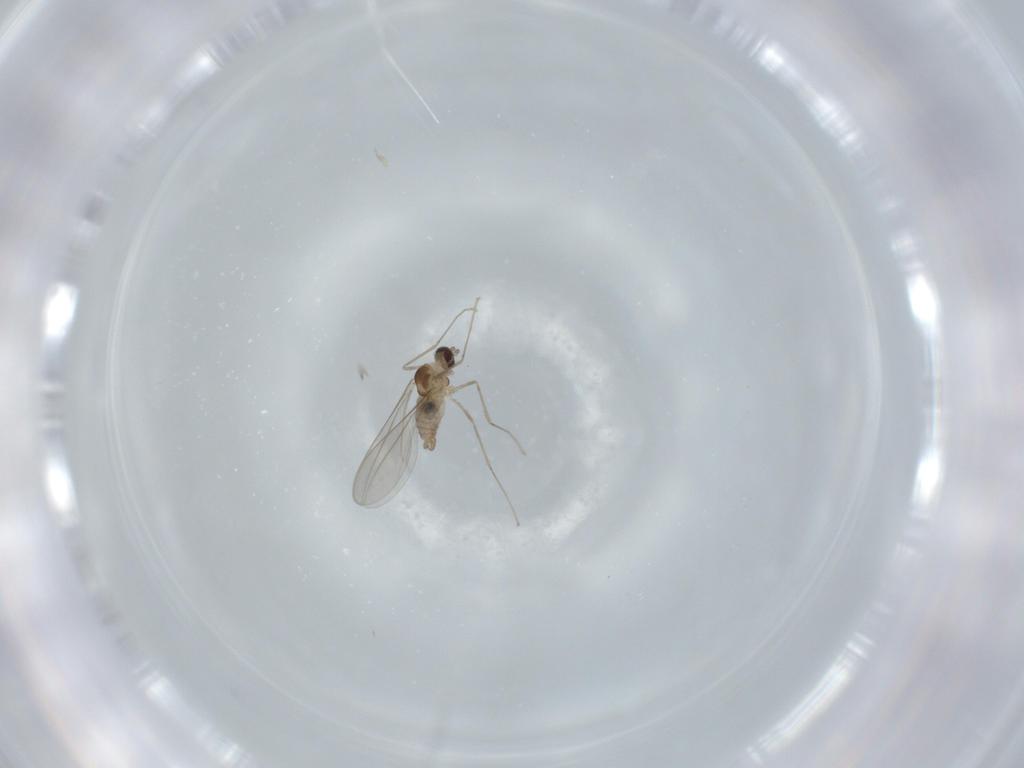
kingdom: Animalia
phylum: Arthropoda
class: Insecta
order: Diptera
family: Cecidomyiidae
